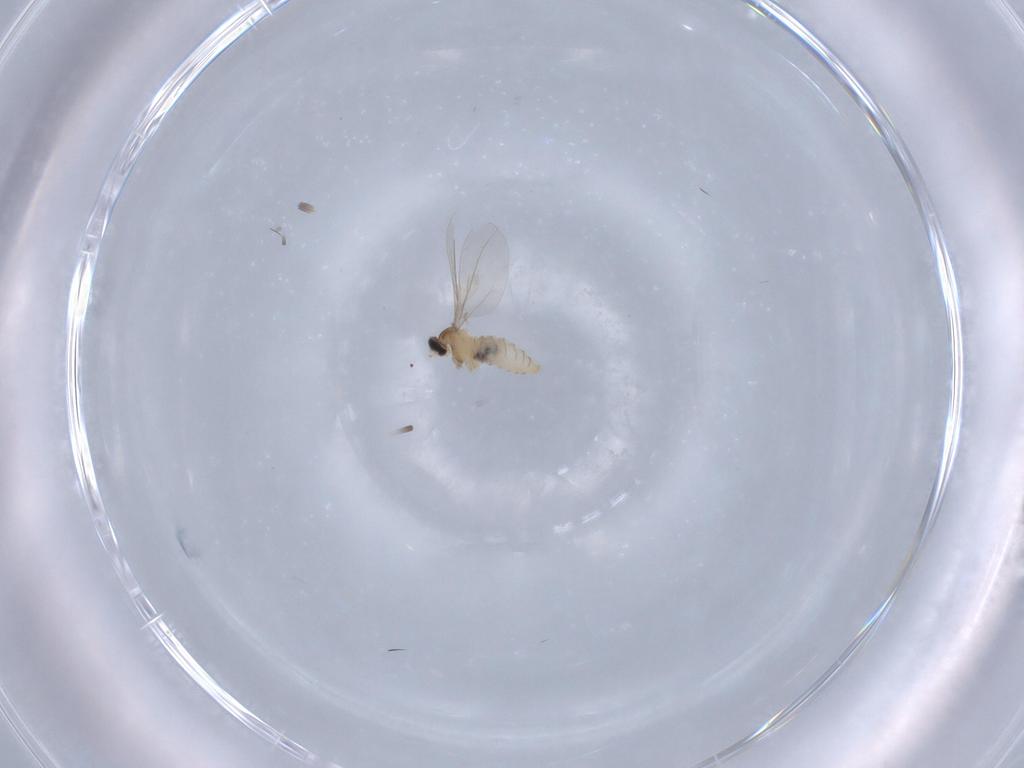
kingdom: Animalia
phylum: Arthropoda
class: Insecta
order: Diptera
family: Cecidomyiidae
